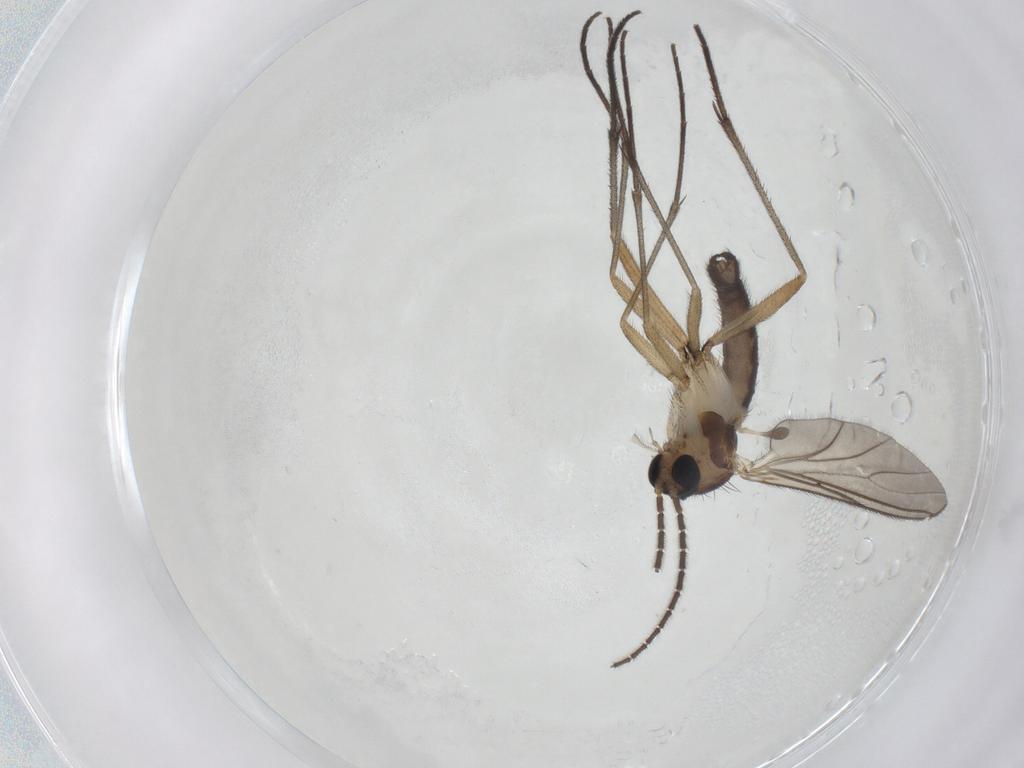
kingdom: Animalia
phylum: Arthropoda
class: Insecta
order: Diptera
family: Sciaridae
